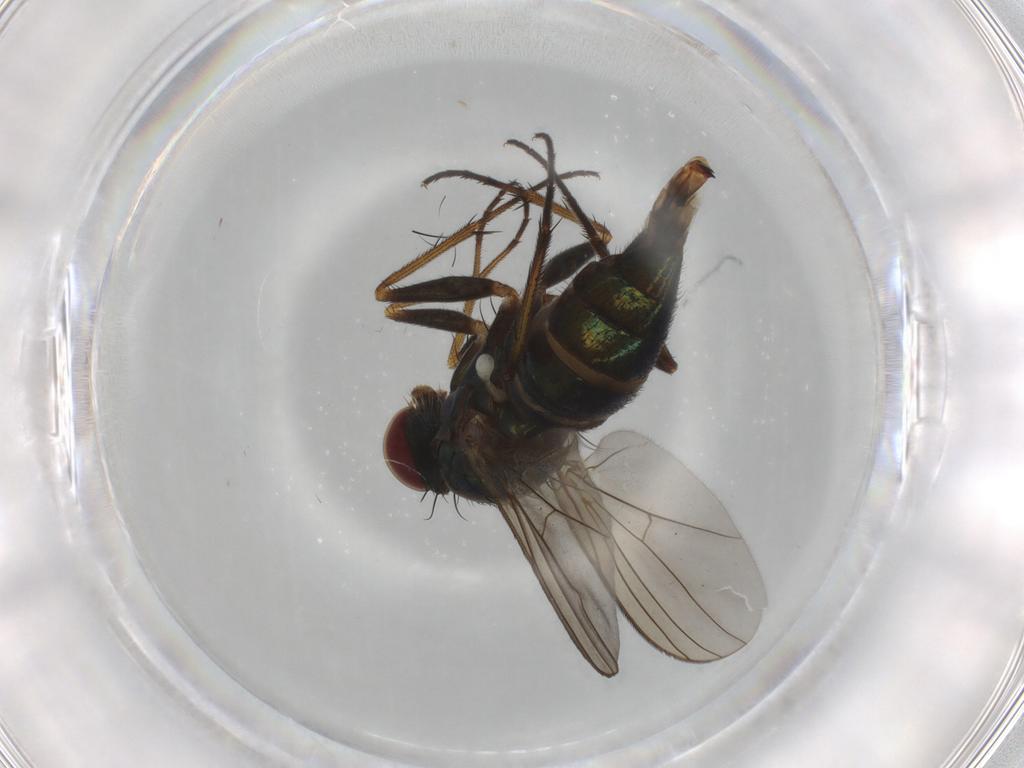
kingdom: Animalia
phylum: Arthropoda
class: Insecta
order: Diptera
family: Dolichopodidae
